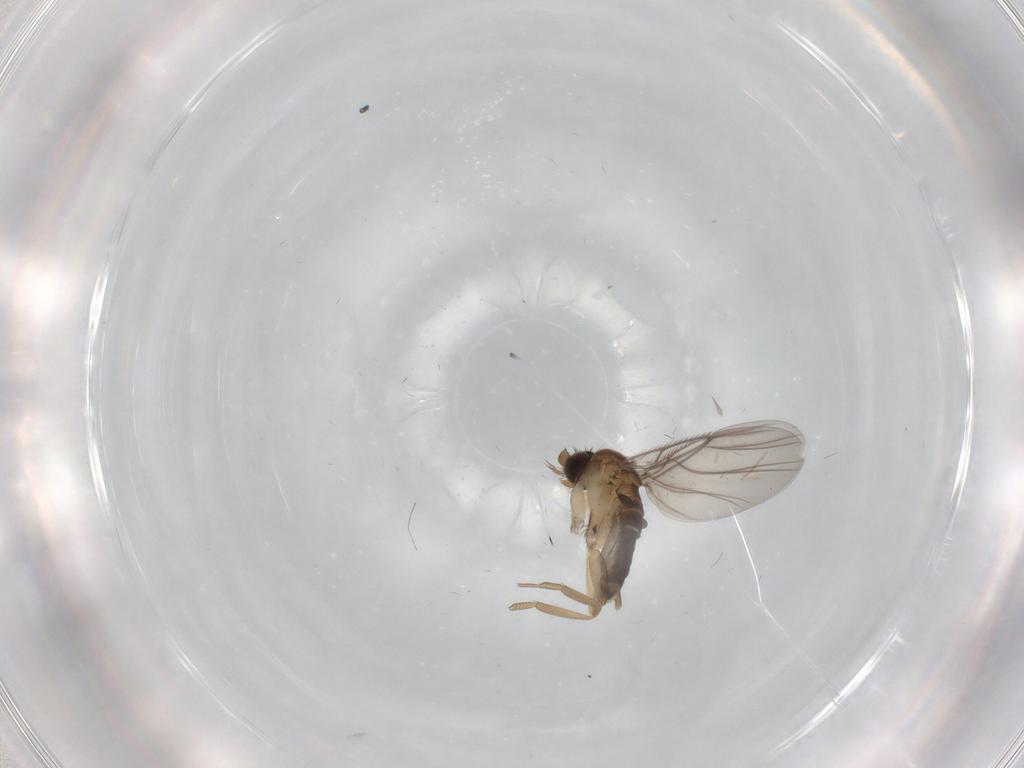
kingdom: Animalia
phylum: Arthropoda
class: Insecta
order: Diptera
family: Phoridae
